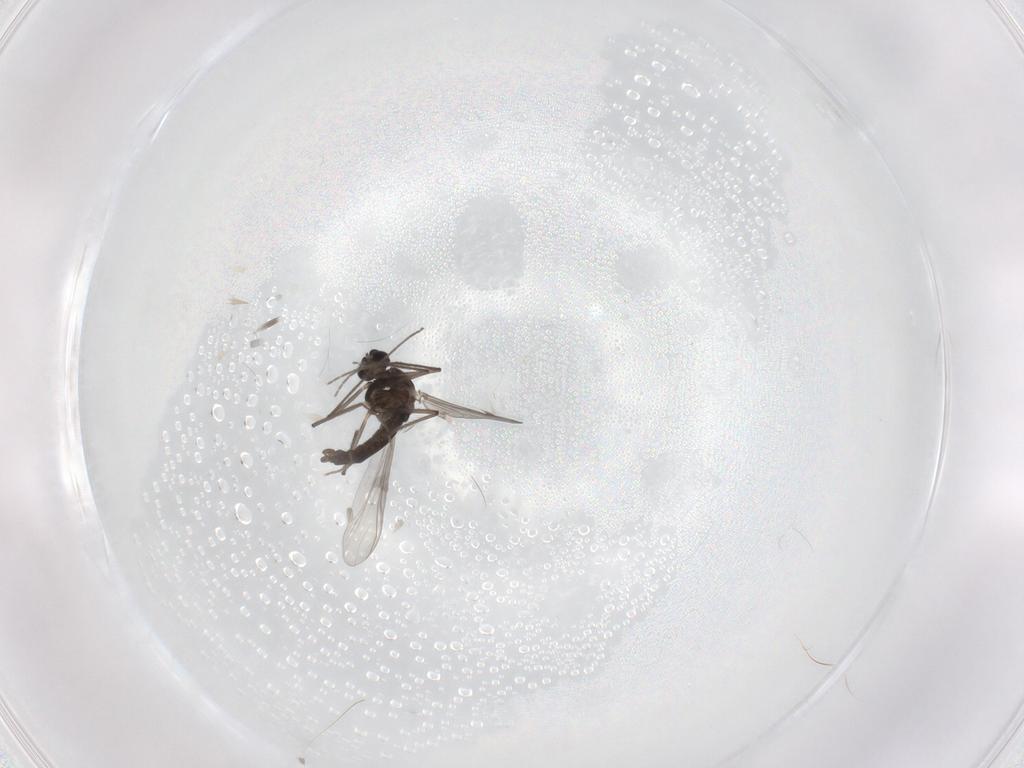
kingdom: Animalia
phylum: Arthropoda
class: Insecta
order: Diptera
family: Chironomidae
